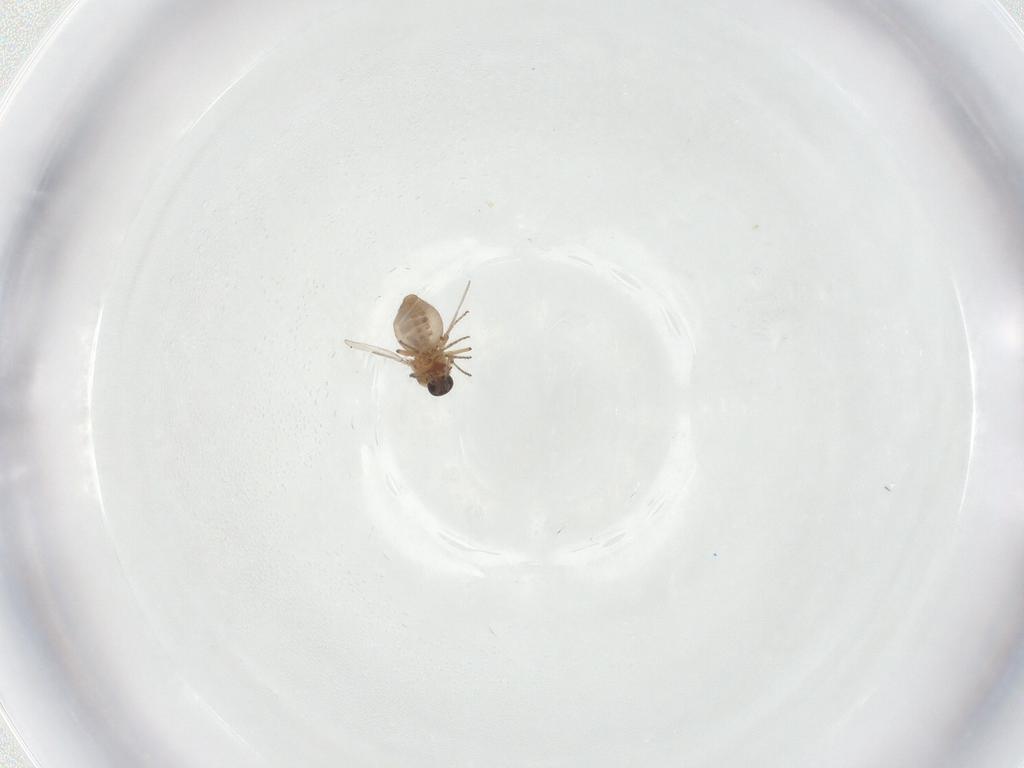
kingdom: Animalia
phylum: Arthropoda
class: Insecta
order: Diptera
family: Ceratopogonidae
